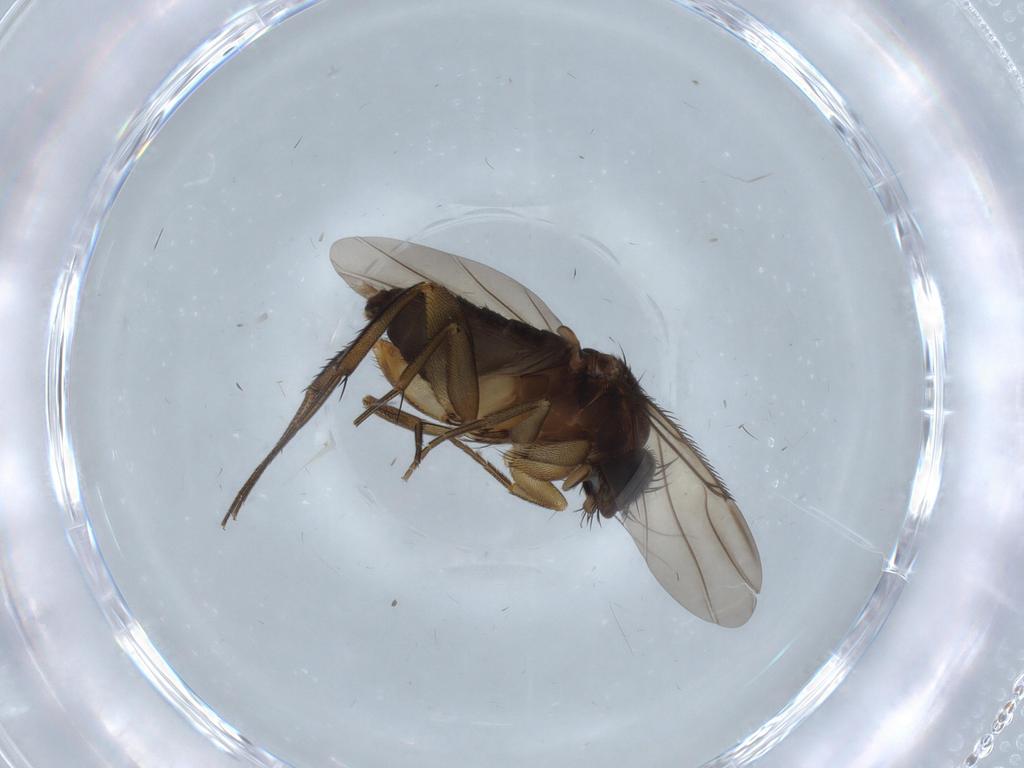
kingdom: Animalia
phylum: Arthropoda
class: Insecta
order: Diptera
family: Phoridae
